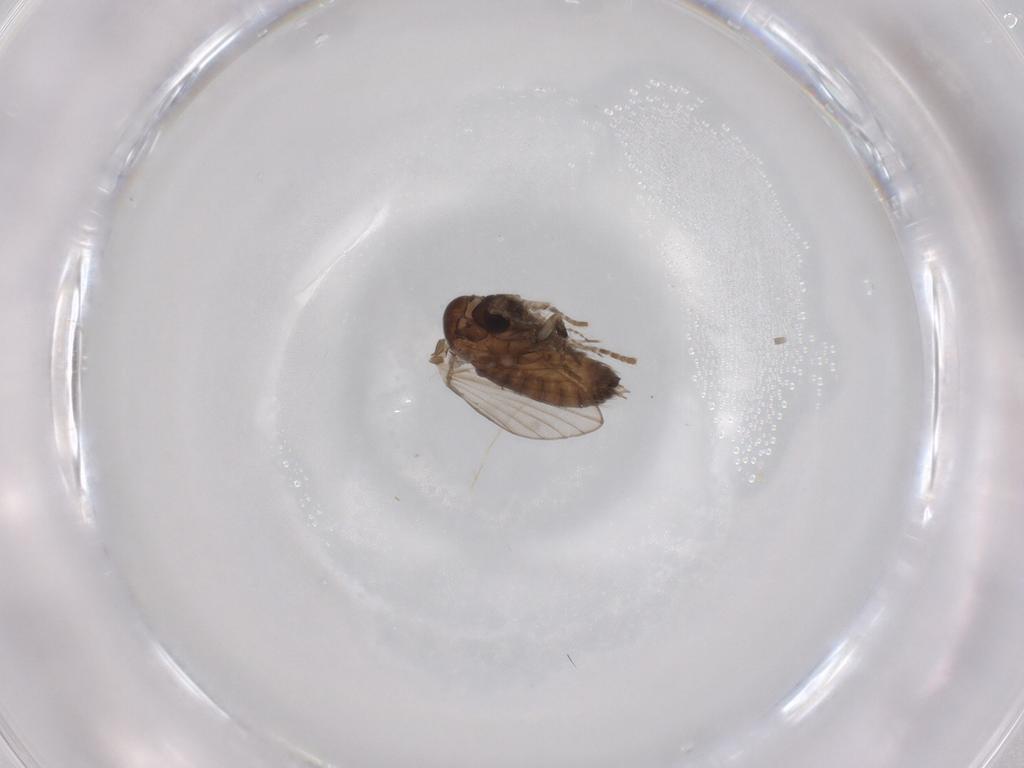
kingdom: Animalia
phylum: Arthropoda
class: Insecta
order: Diptera
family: Psychodidae
